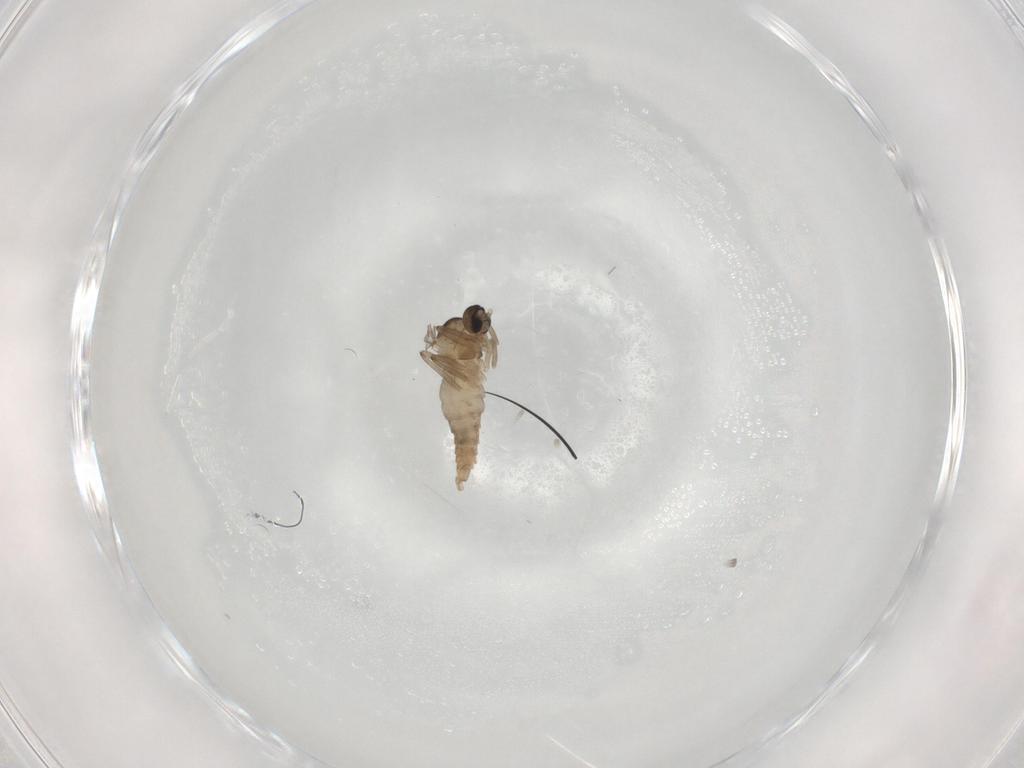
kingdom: Animalia
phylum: Arthropoda
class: Insecta
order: Diptera
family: Cecidomyiidae
